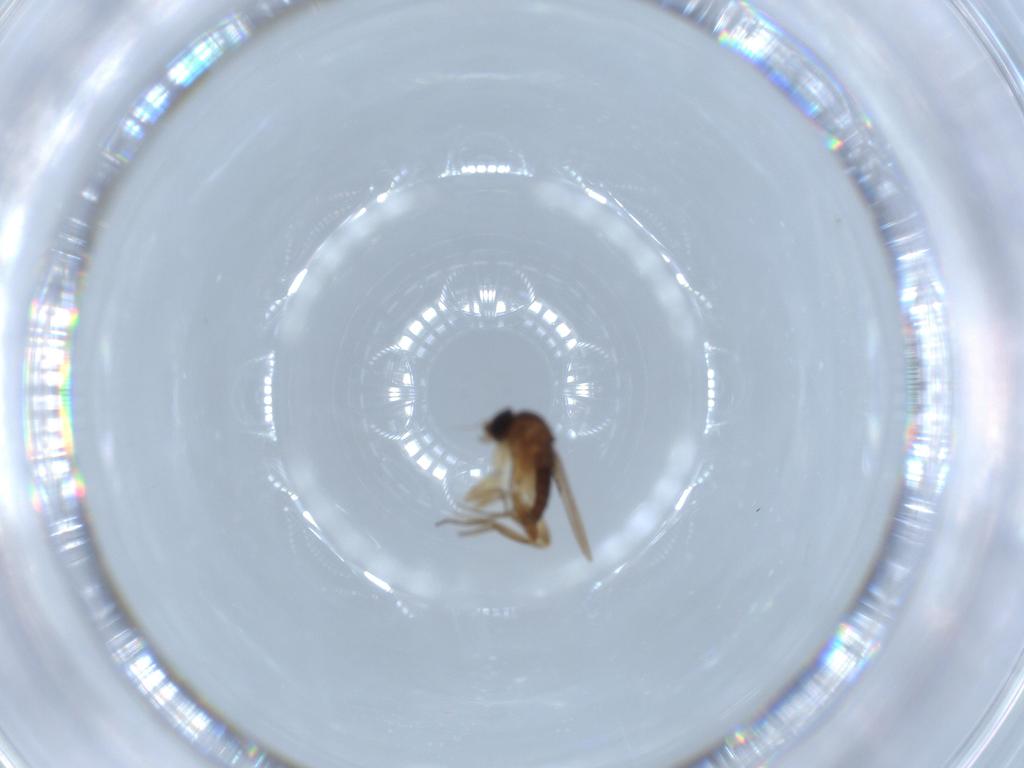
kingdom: Animalia
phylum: Arthropoda
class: Insecta
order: Diptera
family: Phoridae
